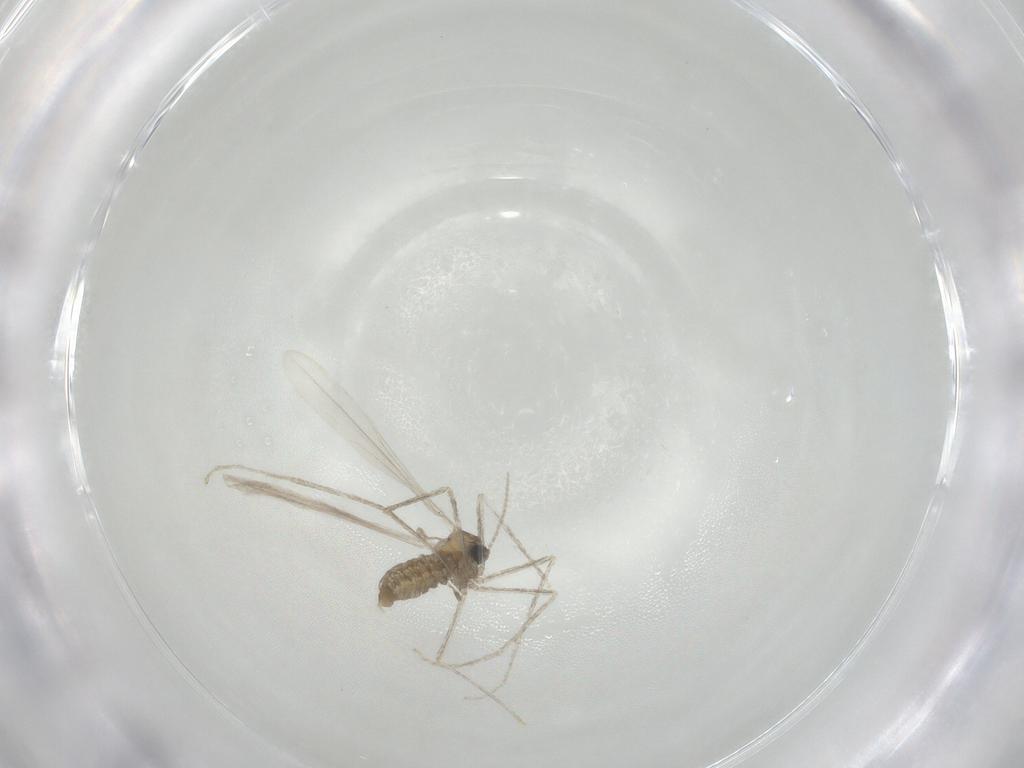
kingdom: Animalia
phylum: Arthropoda
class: Insecta
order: Diptera
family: Cecidomyiidae
